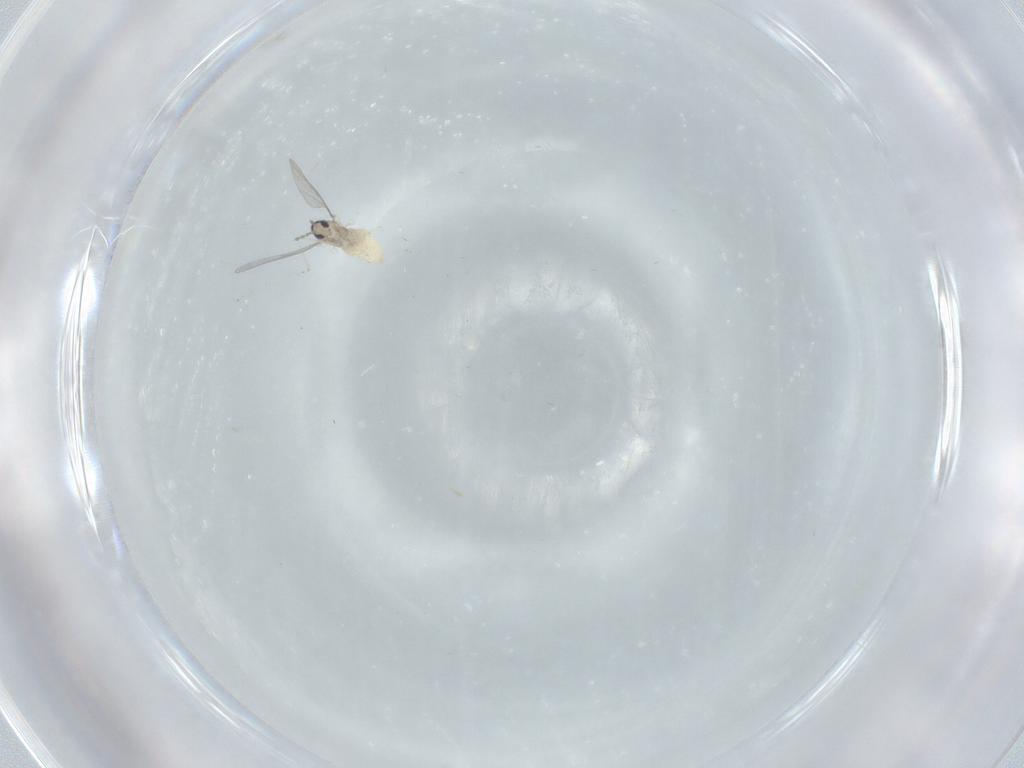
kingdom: Animalia
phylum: Arthropoda
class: Insecta
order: Diptera
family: Cecidomyiidae
